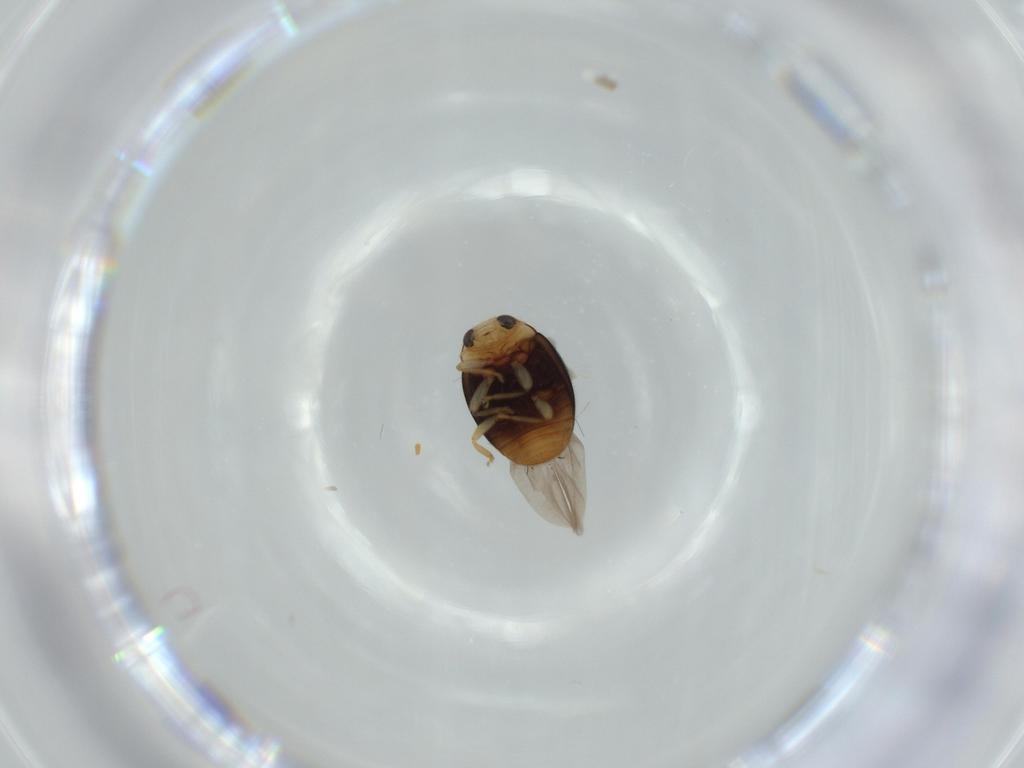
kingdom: Animalia
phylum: Arthropoda
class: Insecta
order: Coleoptera
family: Coccinellidae
